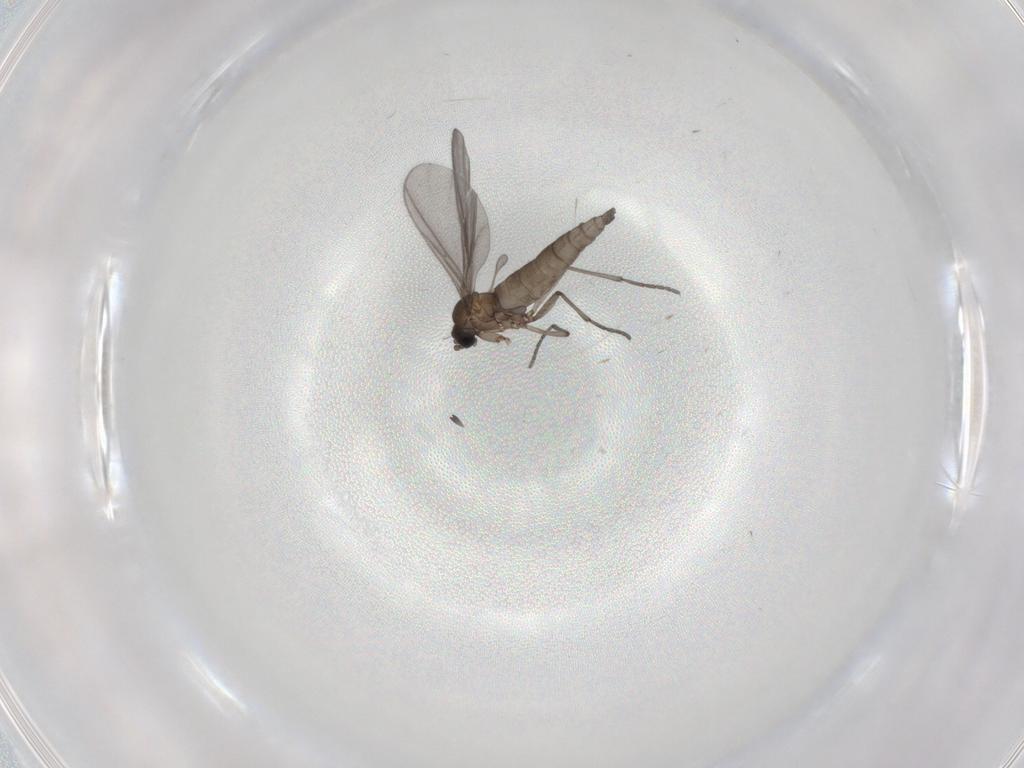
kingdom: Animalia
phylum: Arthropoda
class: Insecta
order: Diptera
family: Sciaridae
